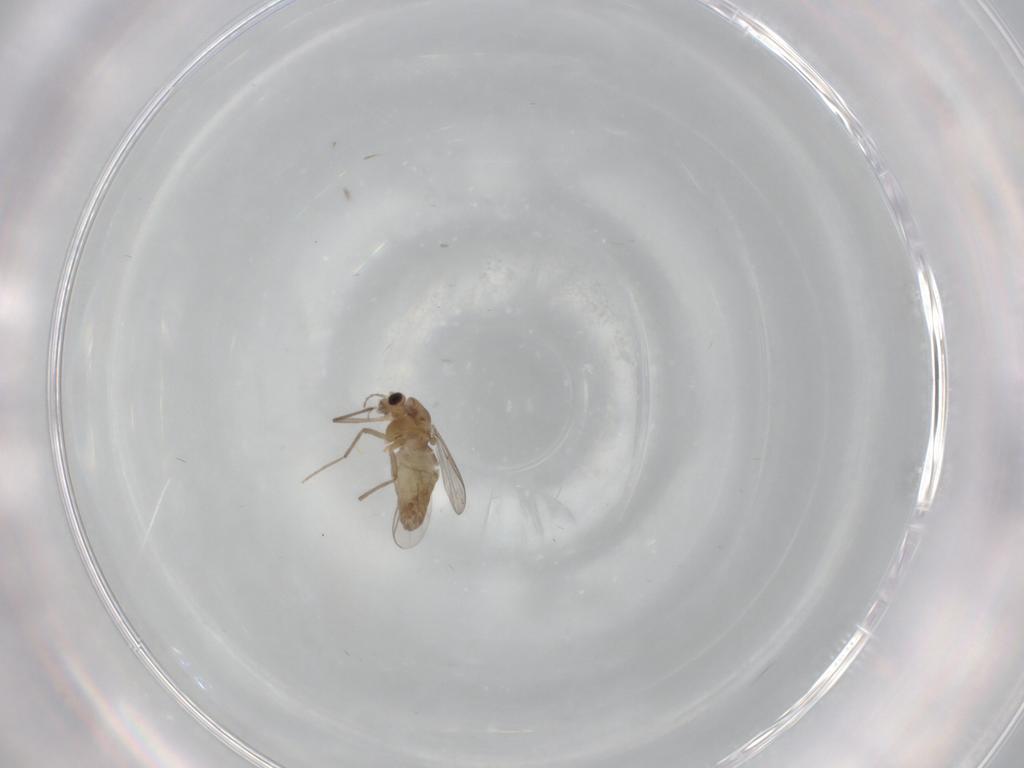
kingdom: Animalia
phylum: Arthropoda
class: Insecta
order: Diptera
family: Chironomidae
